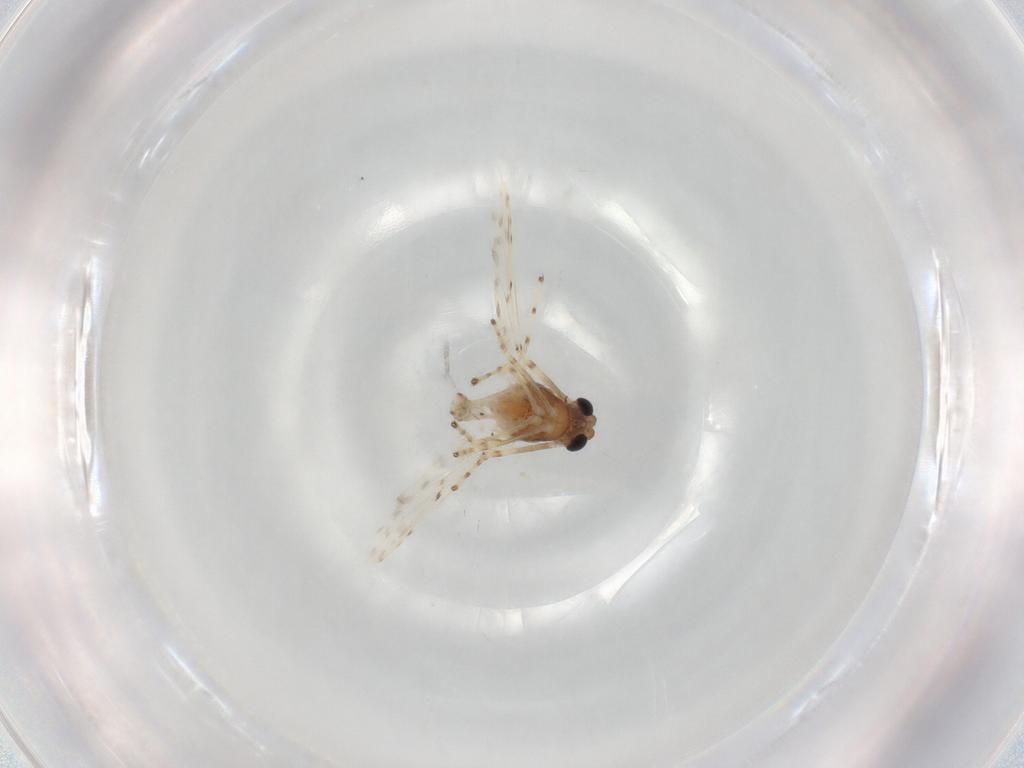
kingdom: Animalia
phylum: Arthropoda
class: Insecta
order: Diptera
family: Chironomidae
